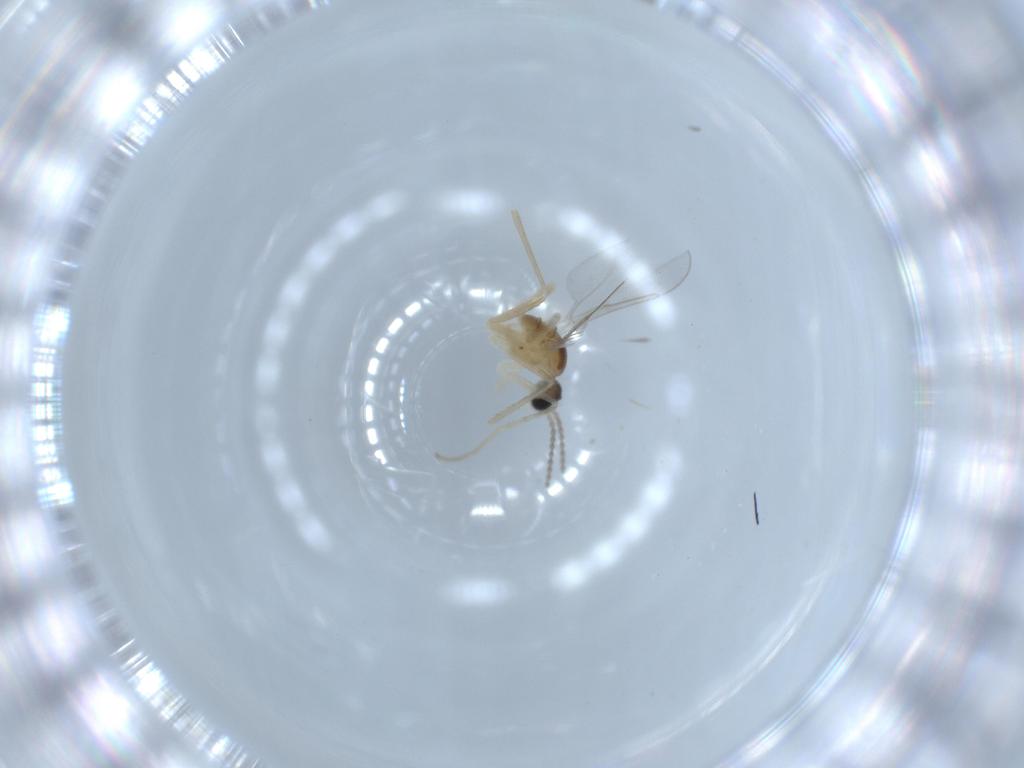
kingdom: Animalia
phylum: Arthropoda
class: Insecta
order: Diptera
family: Cecidomyiidae
